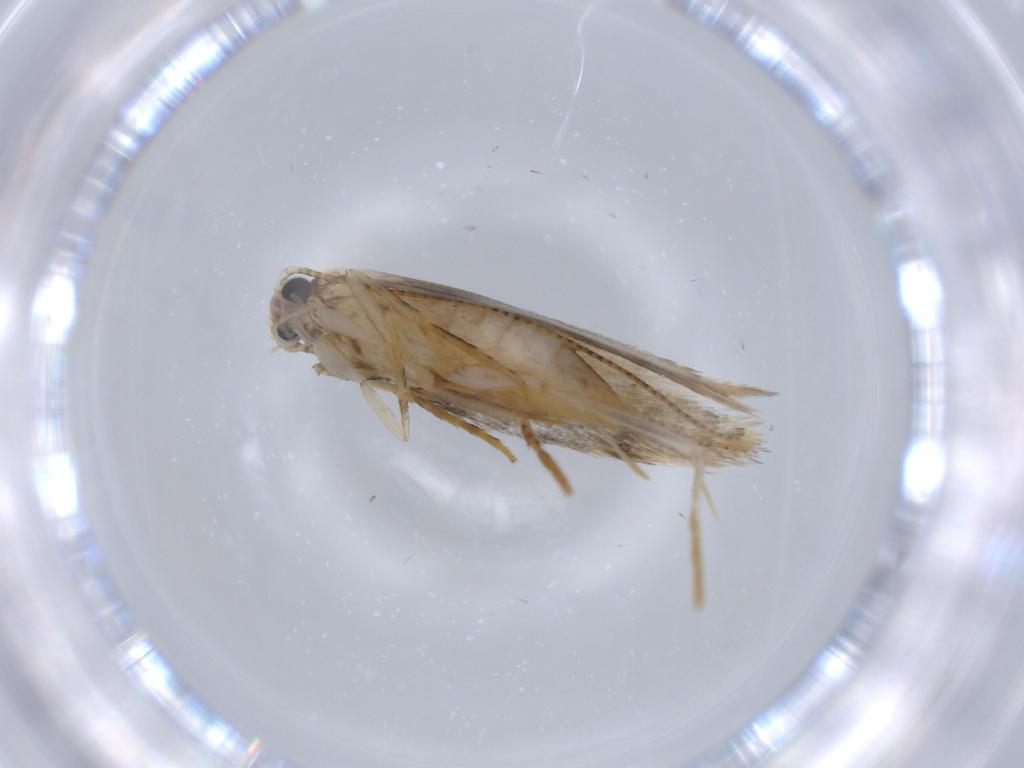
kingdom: Animalia
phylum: Arthropoda
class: Insecta
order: Lepidoptera
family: Tineidae
